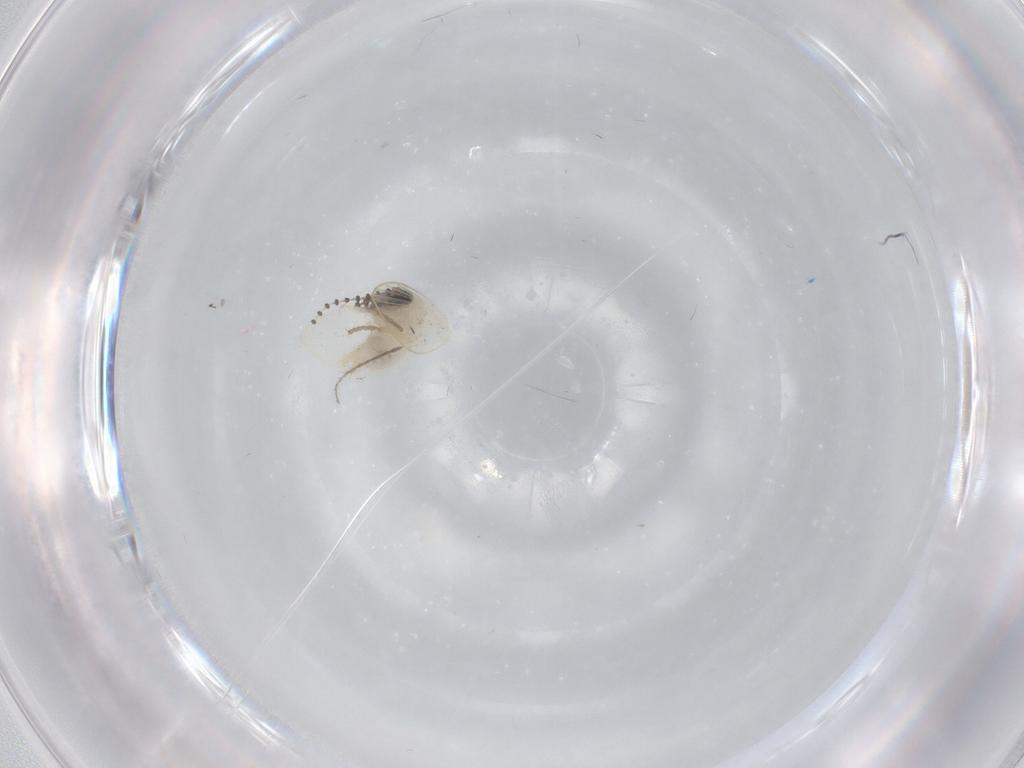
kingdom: Animalia
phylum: Arthropoda
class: Insecta
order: Diptera
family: Psychodidae
